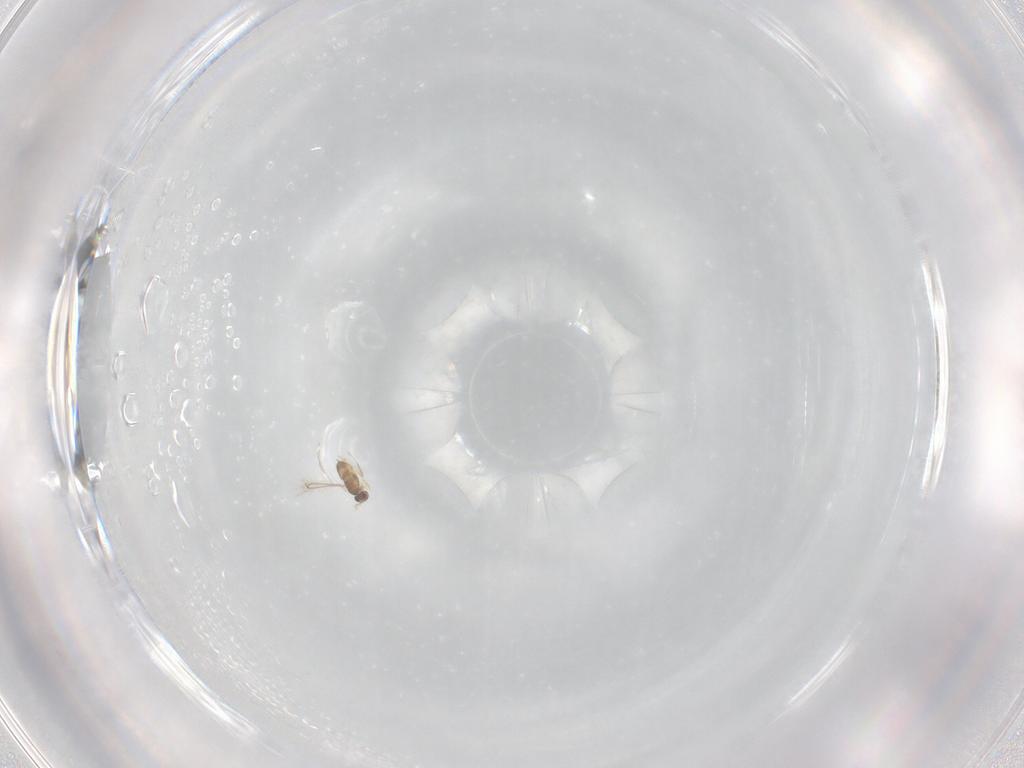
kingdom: Animalia
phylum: Arthropoda
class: Insecta
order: Hymenoptera
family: Mymaridae
